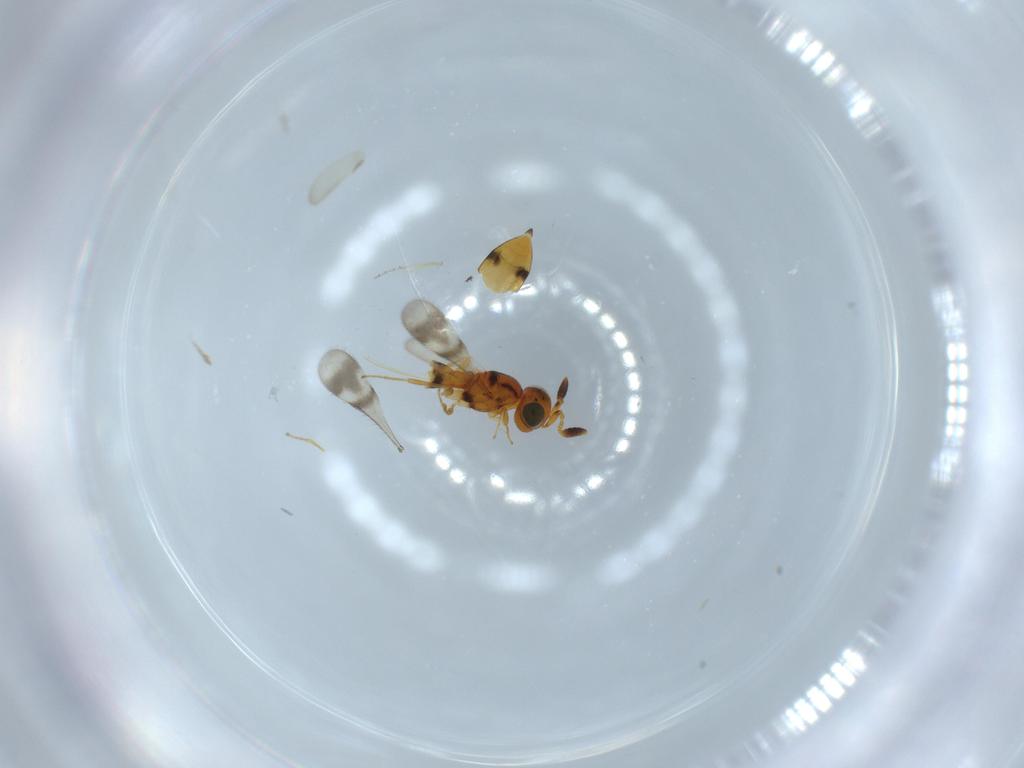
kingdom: Animalia
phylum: Arthropoda
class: Insecta
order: Hymenoptera
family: Scelionidae
